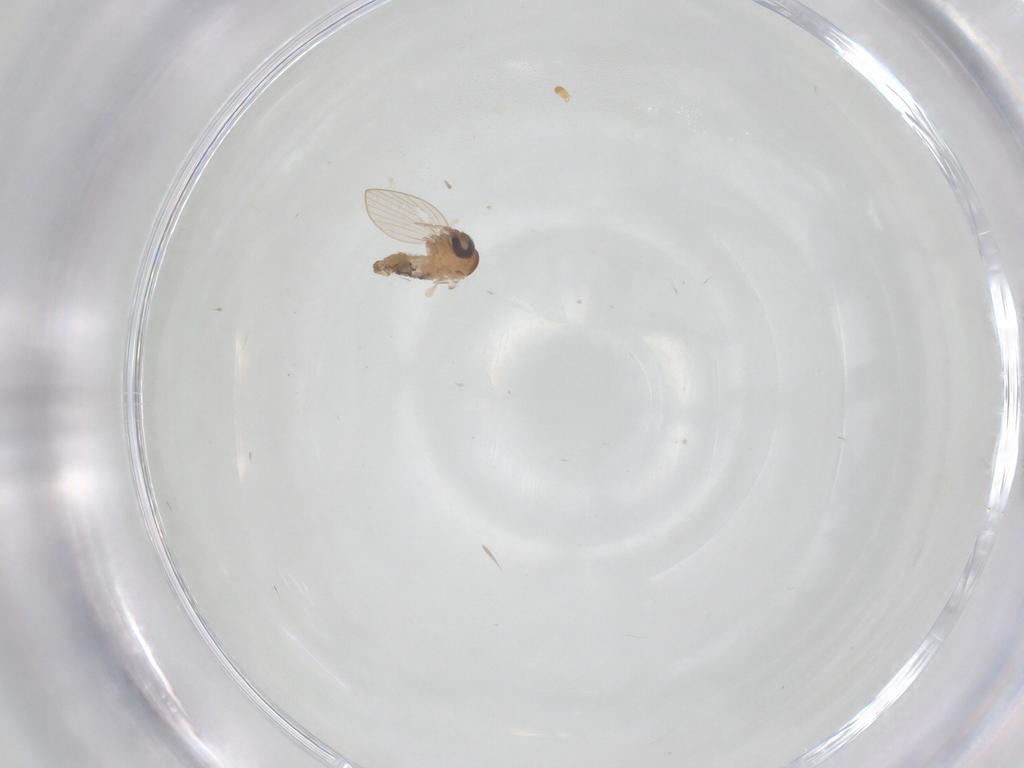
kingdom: Animalia
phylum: Arthropoda
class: Insecta
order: Diptera
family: Psychodidae
